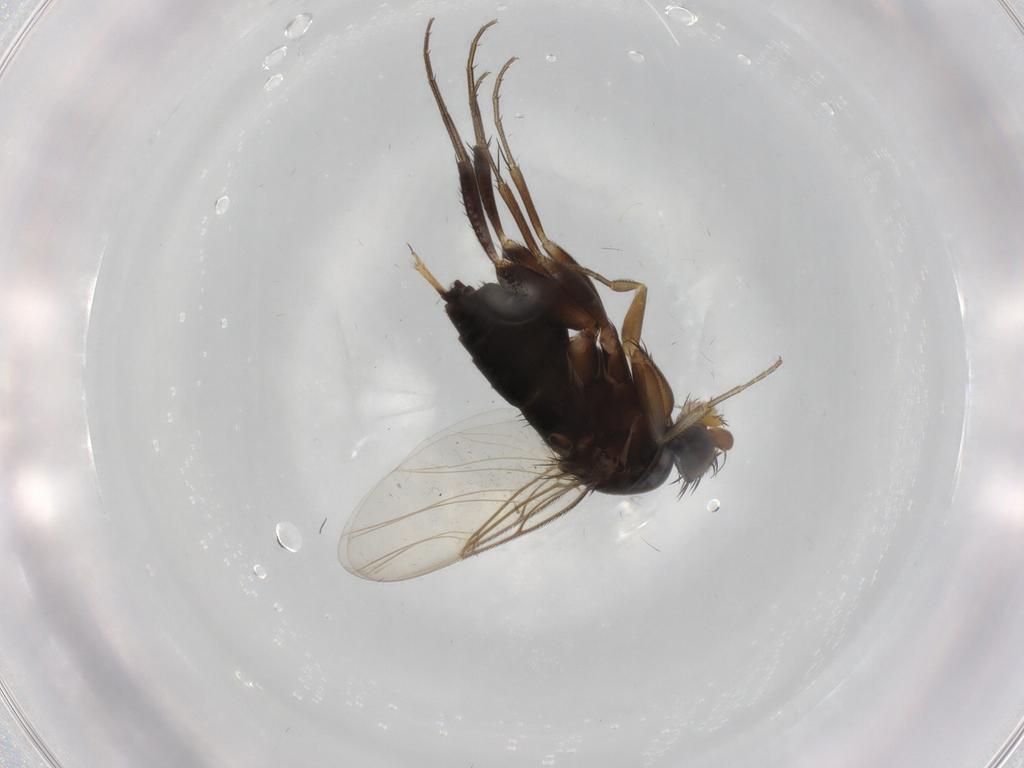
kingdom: Animalia
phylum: Arthropoda
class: Insecta
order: Diptera
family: Phoridae
